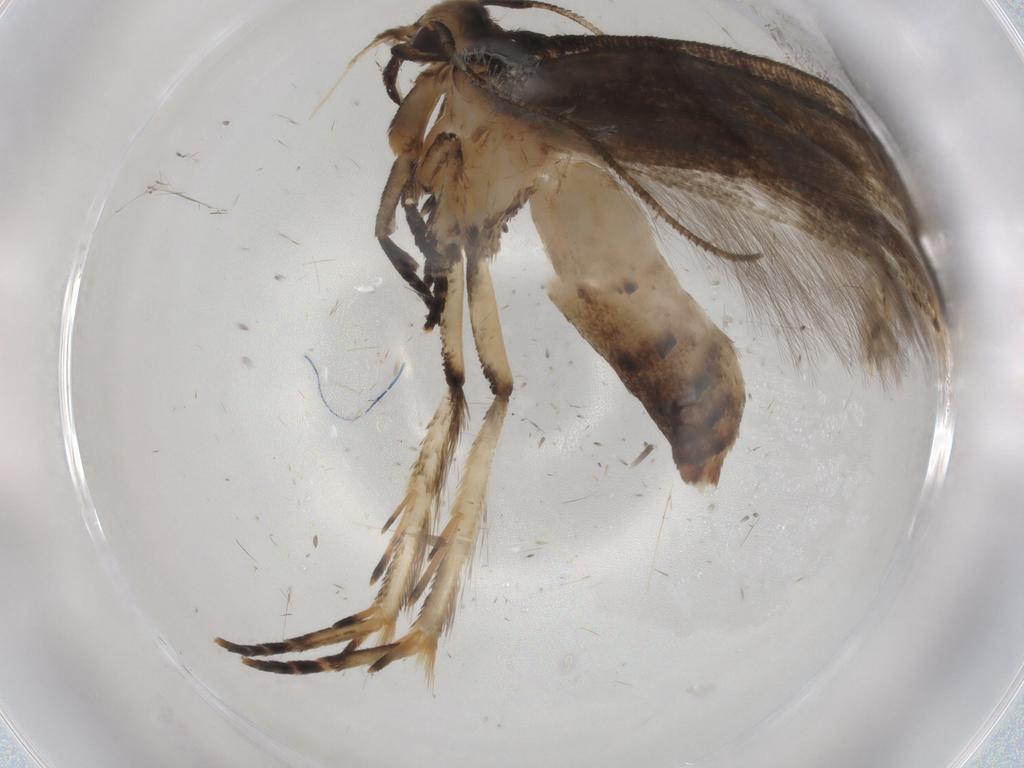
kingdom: Animalia
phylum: Arthropoda
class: Insecta
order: Lepidoptera
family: Cosmopterigidae
